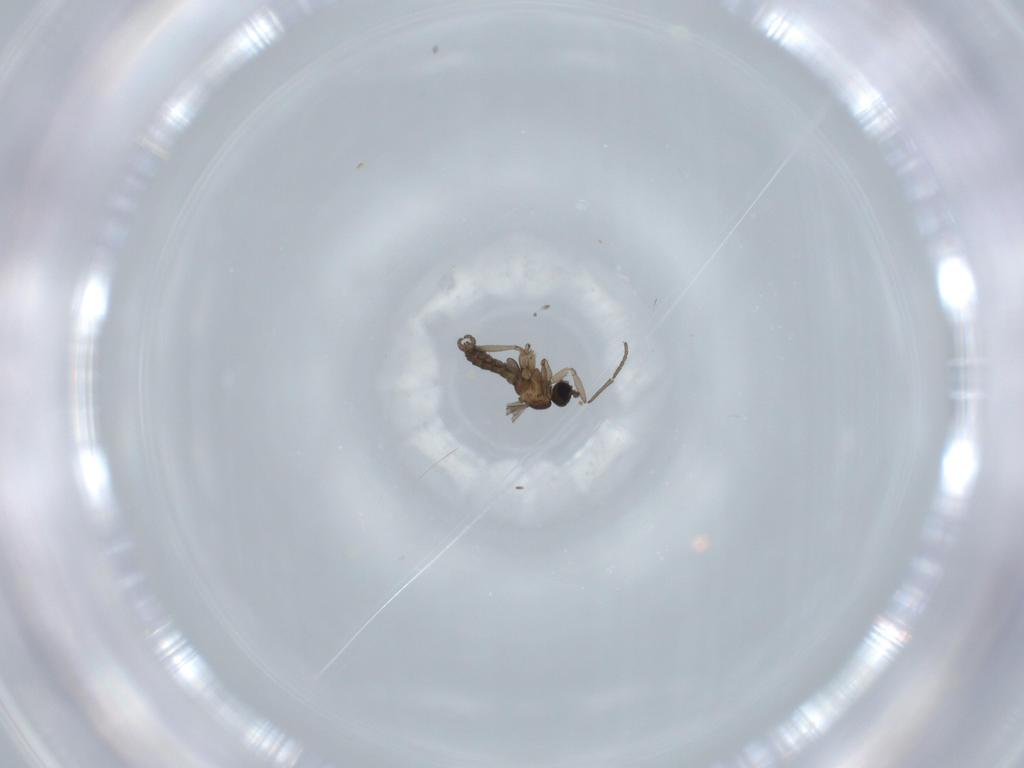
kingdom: Animalia
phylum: Arthropoda
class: Insecta
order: Diptera
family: Ceratopogonidae
